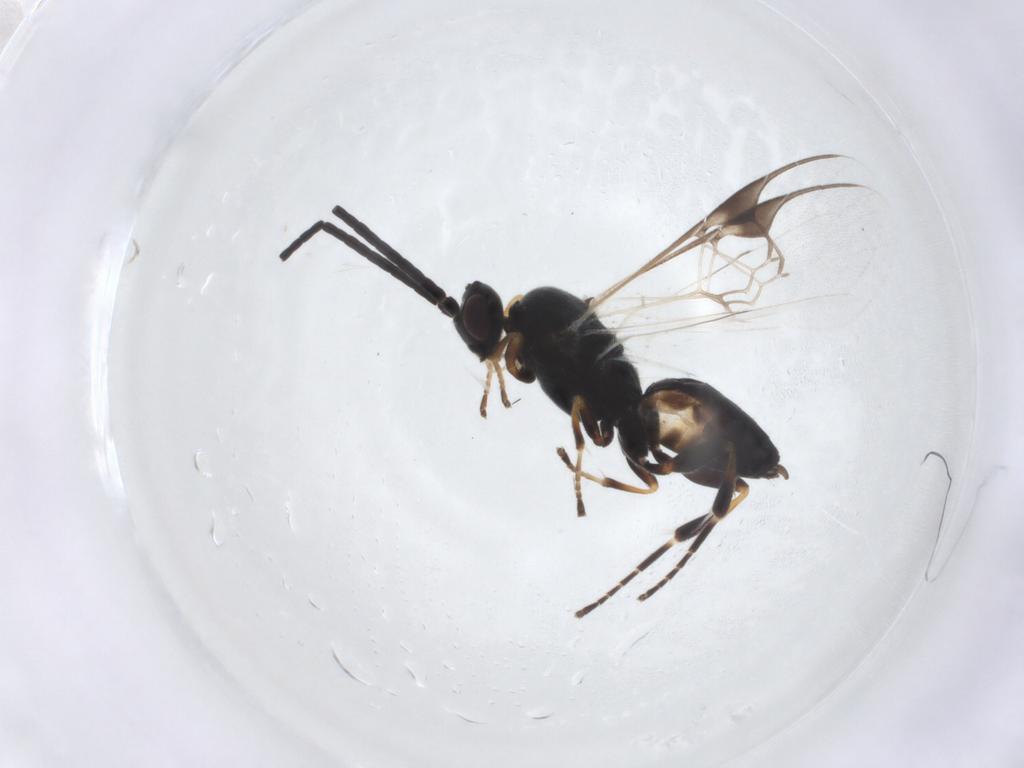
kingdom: Animalia
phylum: Arthropoda
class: Insecta
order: Hymenoptera
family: Braconidae
